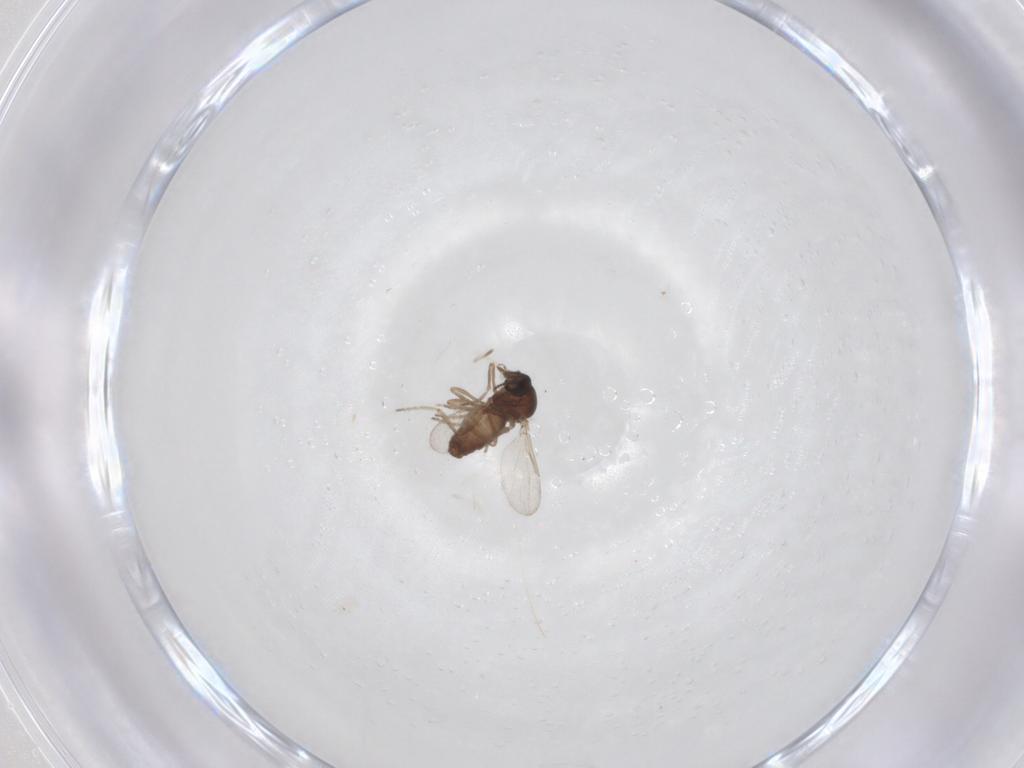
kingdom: Animalia
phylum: Arthropoda
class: Insecta
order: Diptera
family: Ceratopogonidae
